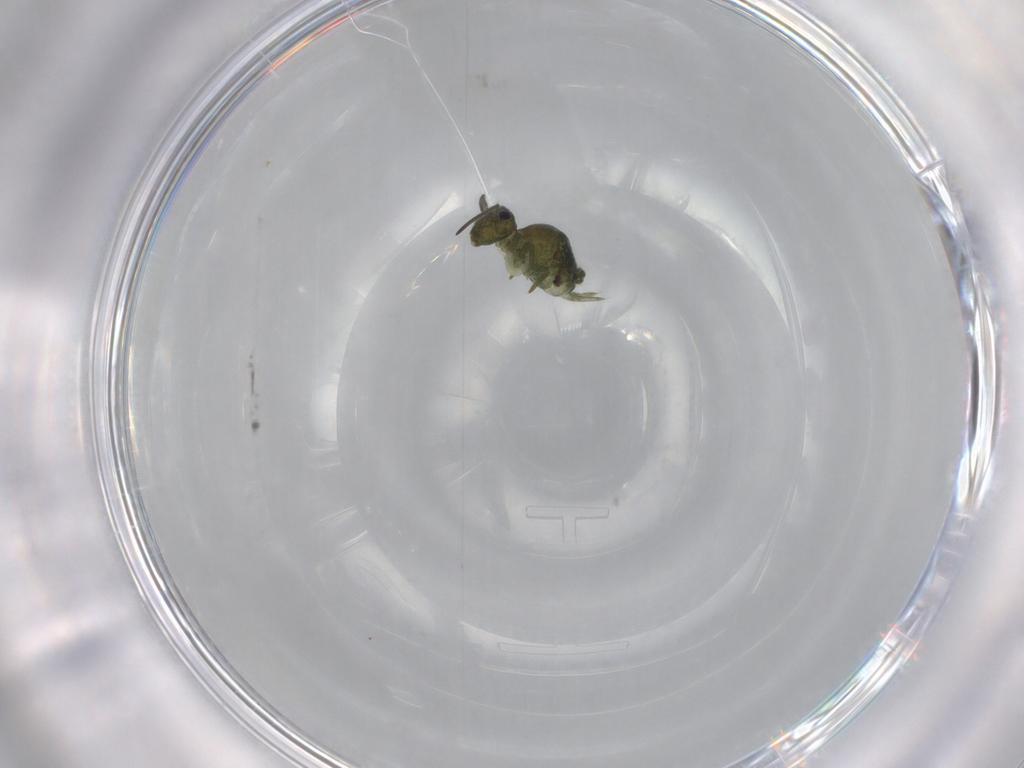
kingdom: Animalia
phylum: Arthropoda
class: Collembola
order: Symphypleona
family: Sminthuridae
